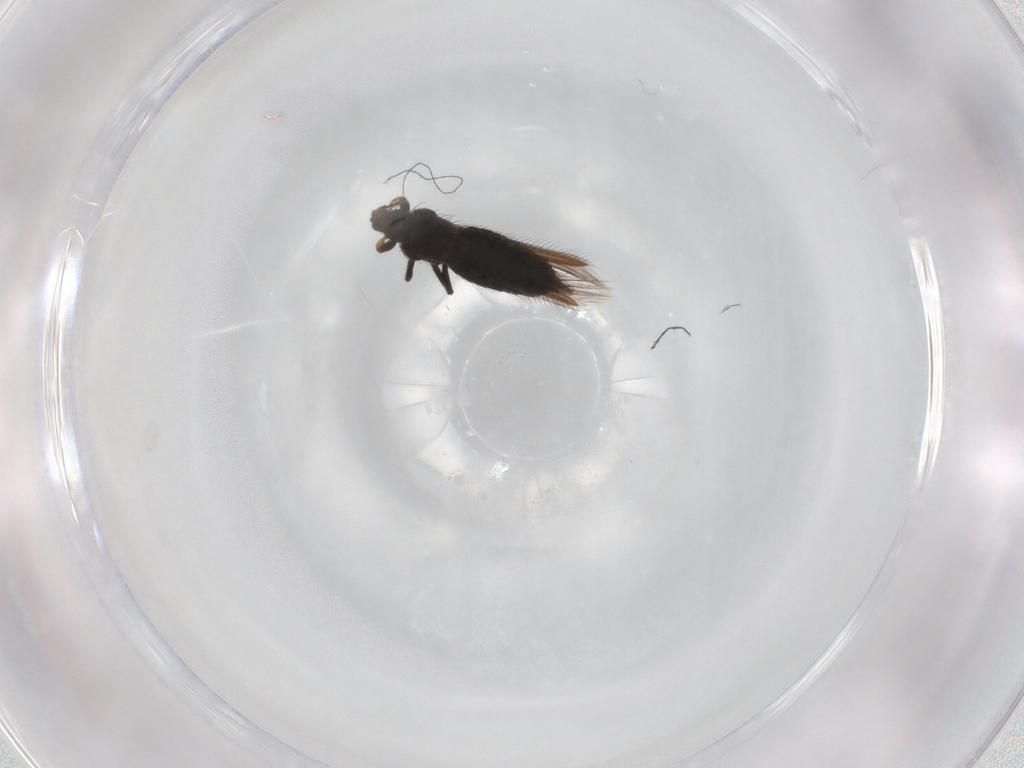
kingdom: Animalia
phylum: Arthropoda
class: Insecta
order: Thysanoptera
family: Thripidae
